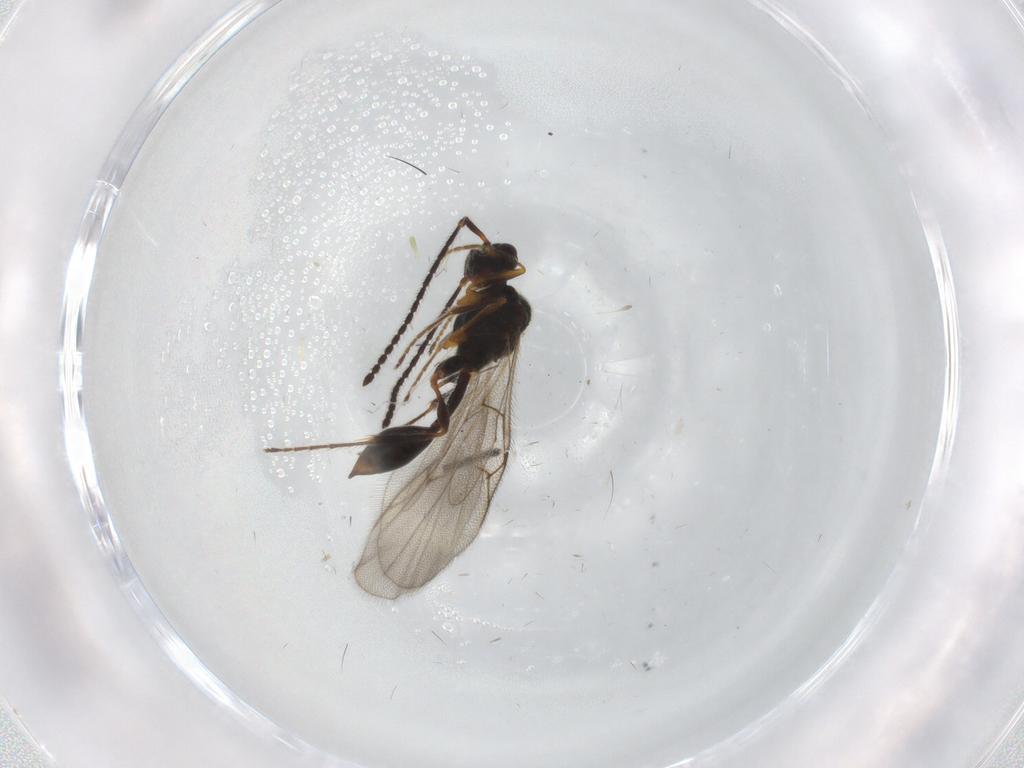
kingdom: Animalia
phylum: Arthropoda
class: Insecta
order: Hymenoptera
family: Diapriidae
